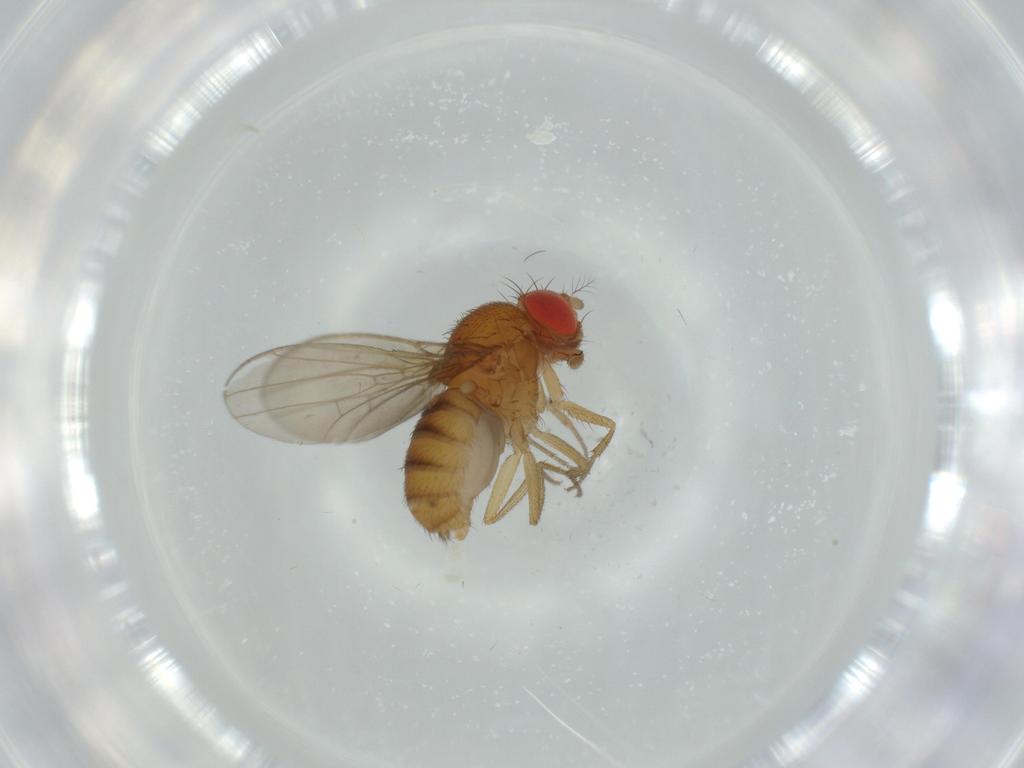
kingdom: Animalia
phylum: Arthropoda
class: Insecta
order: Diptera
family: Drosophilidae
